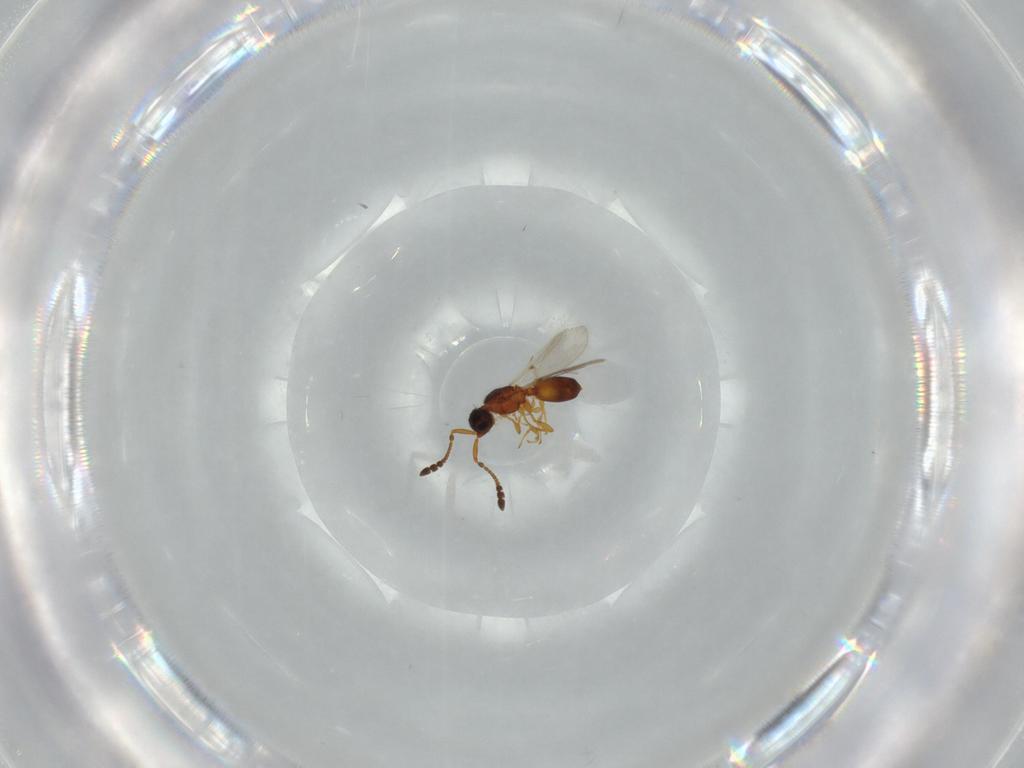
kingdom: Animalia
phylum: Arthropoda
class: Insecta
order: Hymenoptera
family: Diapriidae
